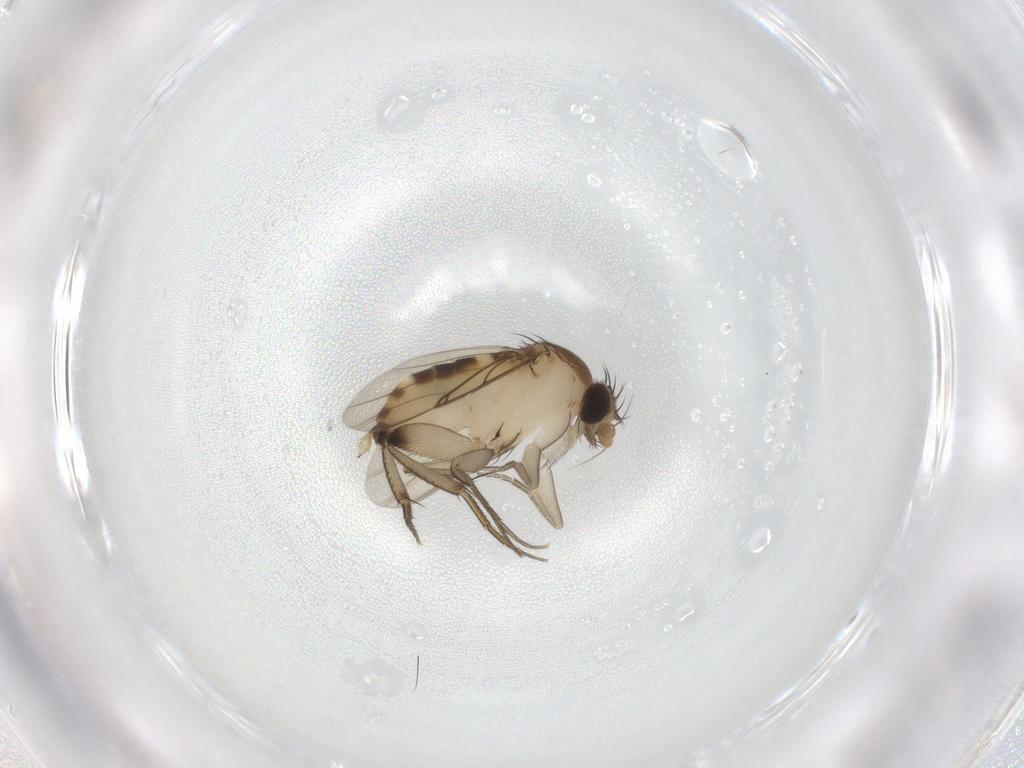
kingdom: Animalia
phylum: Arthropoda
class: Insecta
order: Diptera
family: Phoridae
